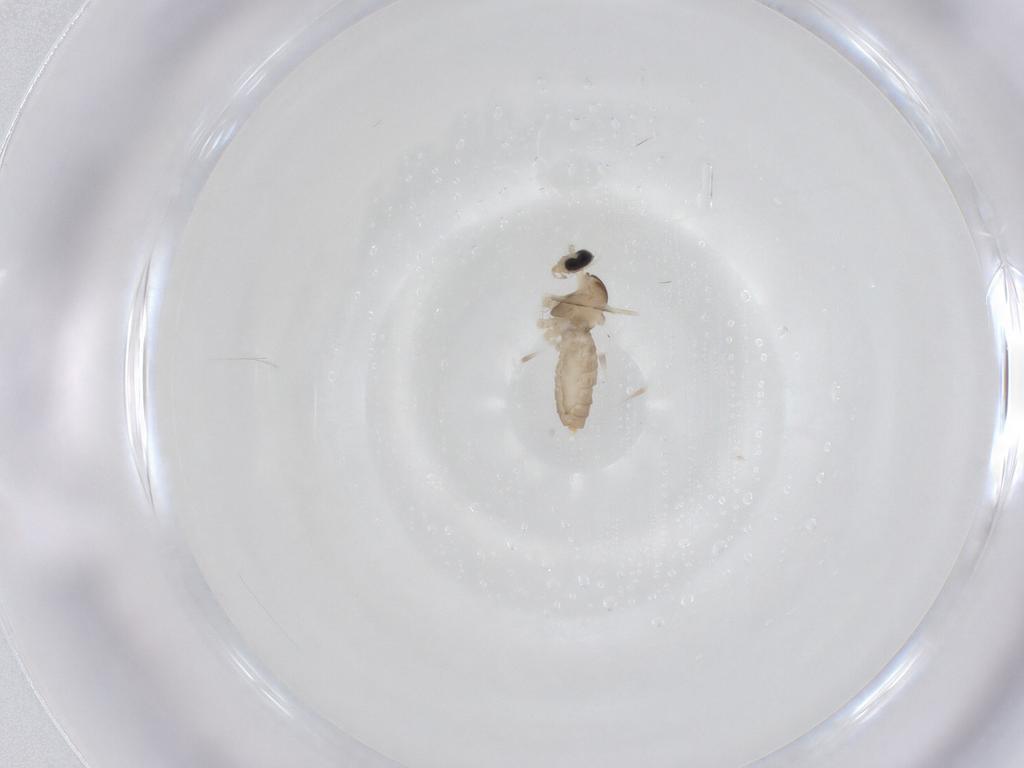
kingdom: Animalia
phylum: Arthropoda
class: Insecta
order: Diptera
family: Cecidomyiidae
